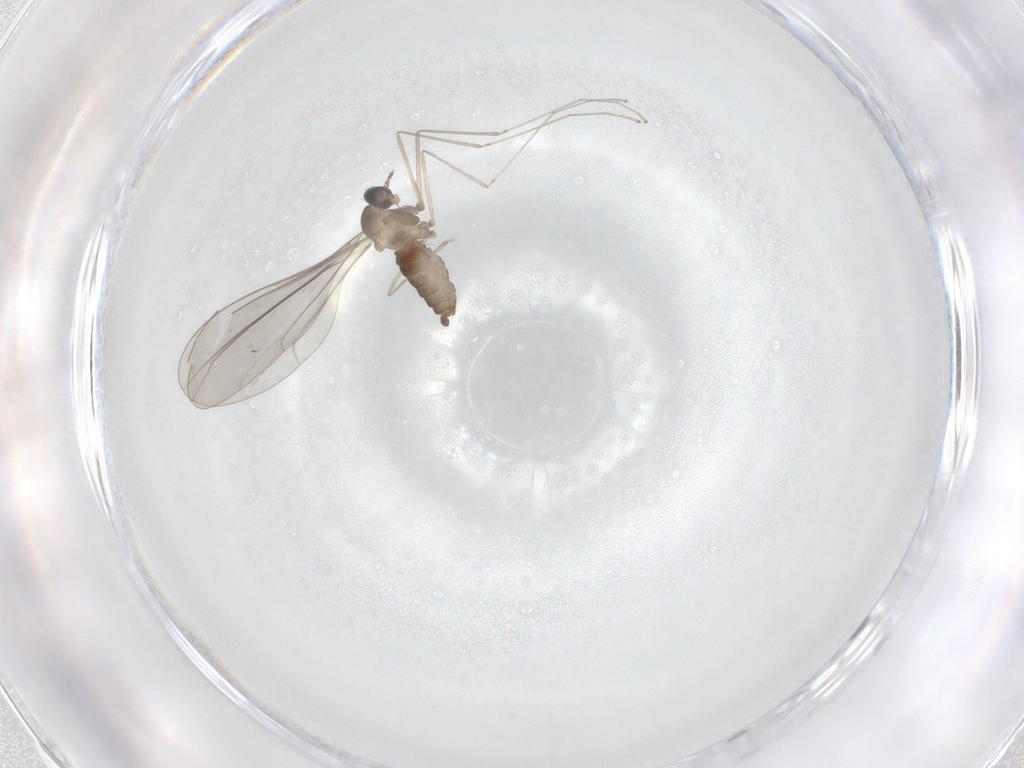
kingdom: Animalia
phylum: Arthropoda
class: Insecta
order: Diptera
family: Cecidomyiidae
